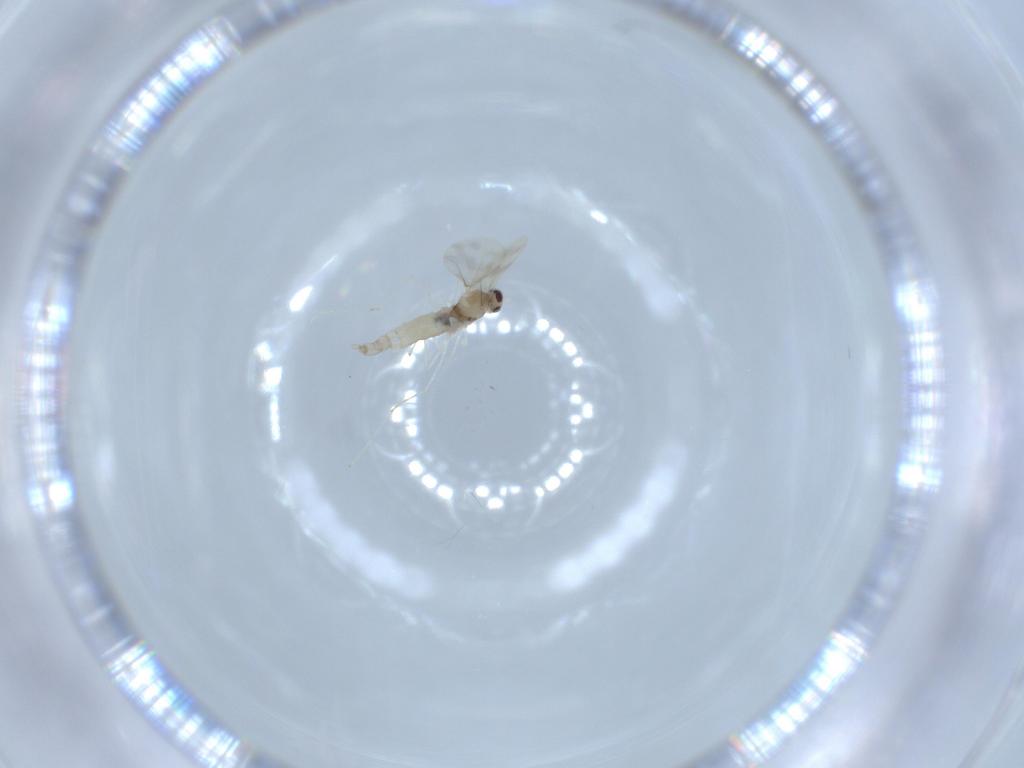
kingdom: Animalia
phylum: Arthropoda
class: Insecta
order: Diptera
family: Cecidomyiidae
